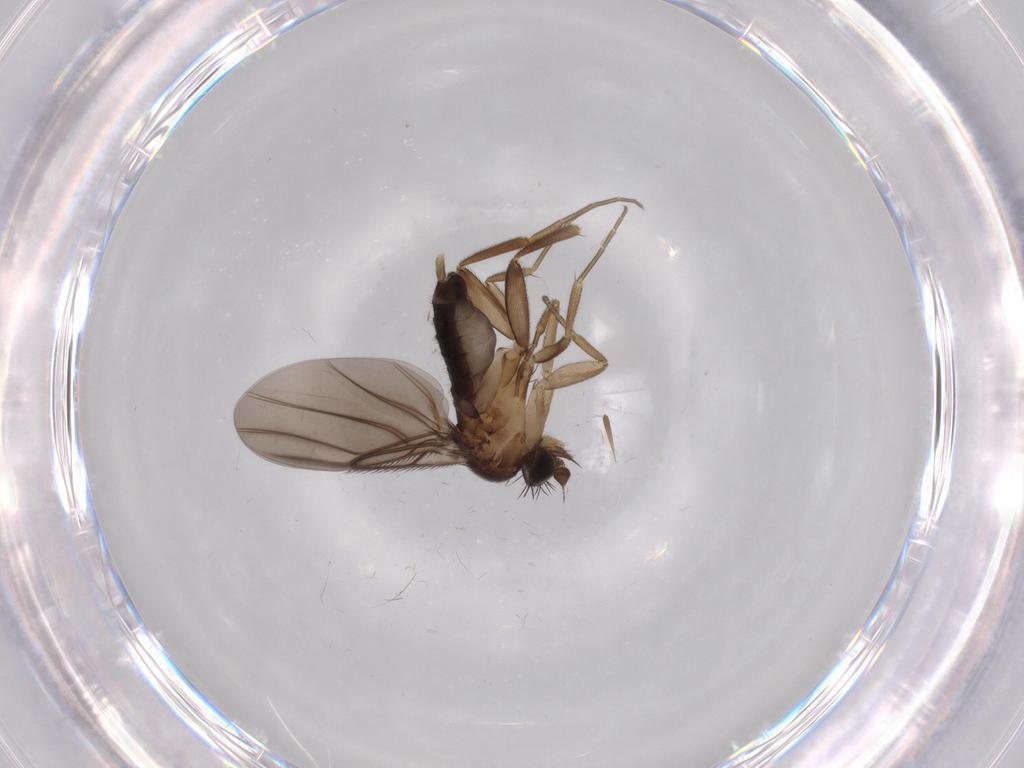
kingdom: Animalia
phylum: Arthropoda
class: Insecta
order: Diptera
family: Phoridae
